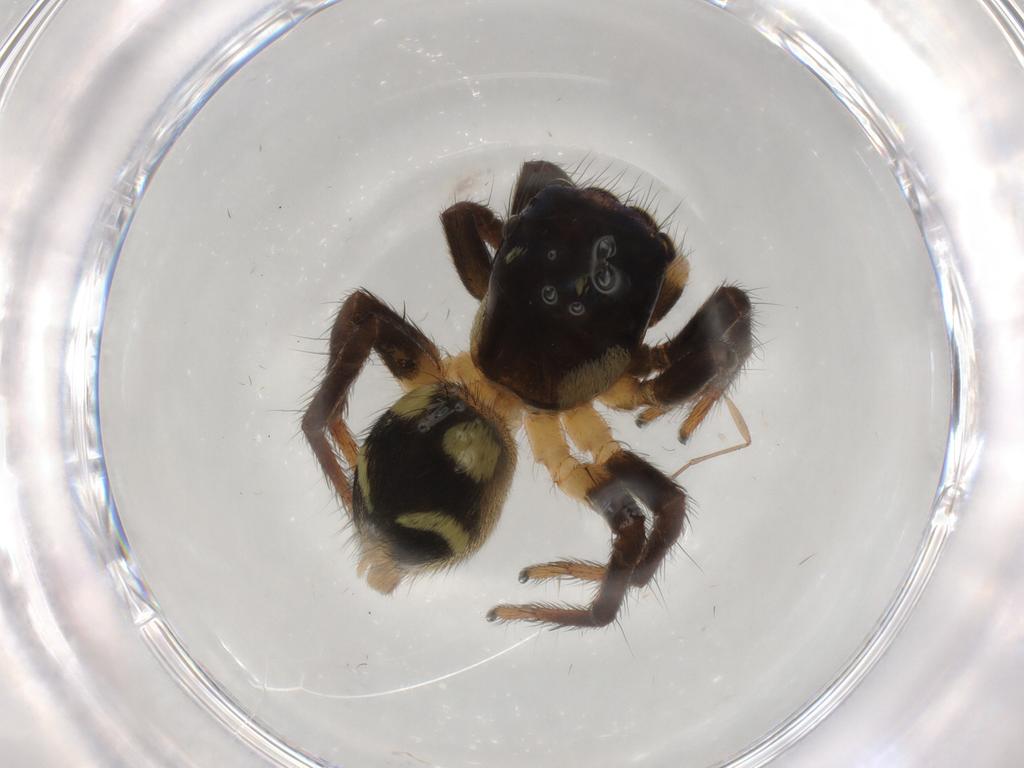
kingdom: Animalia
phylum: Arthropoda
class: Arachnida
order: Araneae
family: Salticidae
